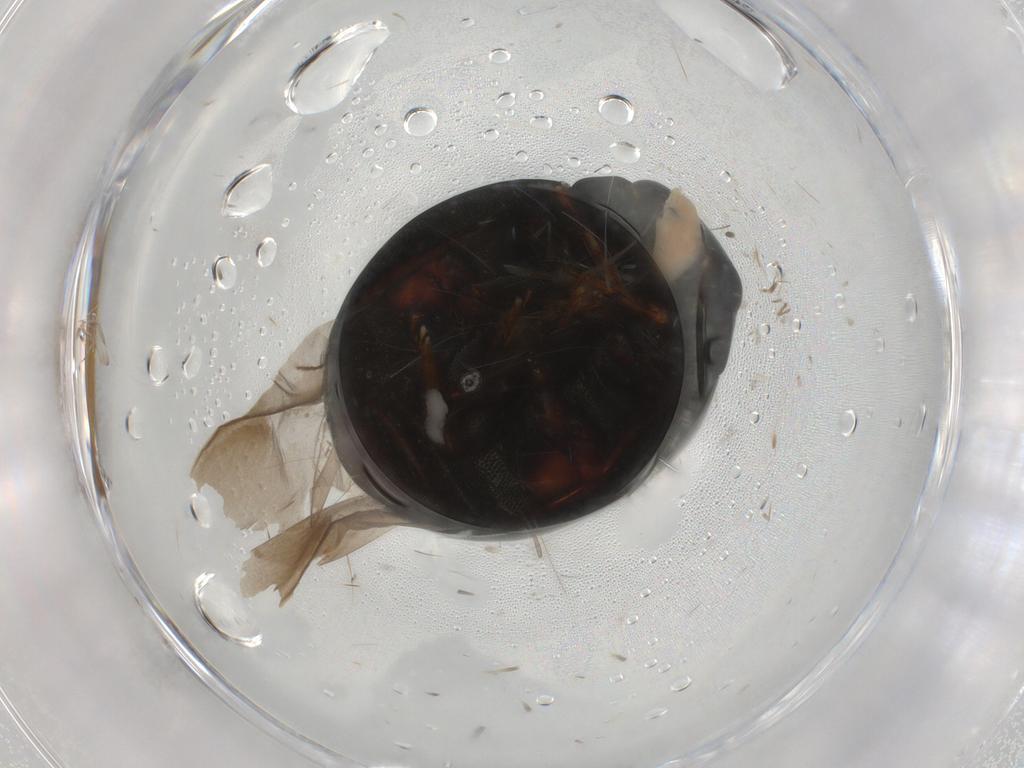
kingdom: Animalia
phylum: Arthropoda
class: Insecta
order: Coleoptera
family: Coccinellidae
